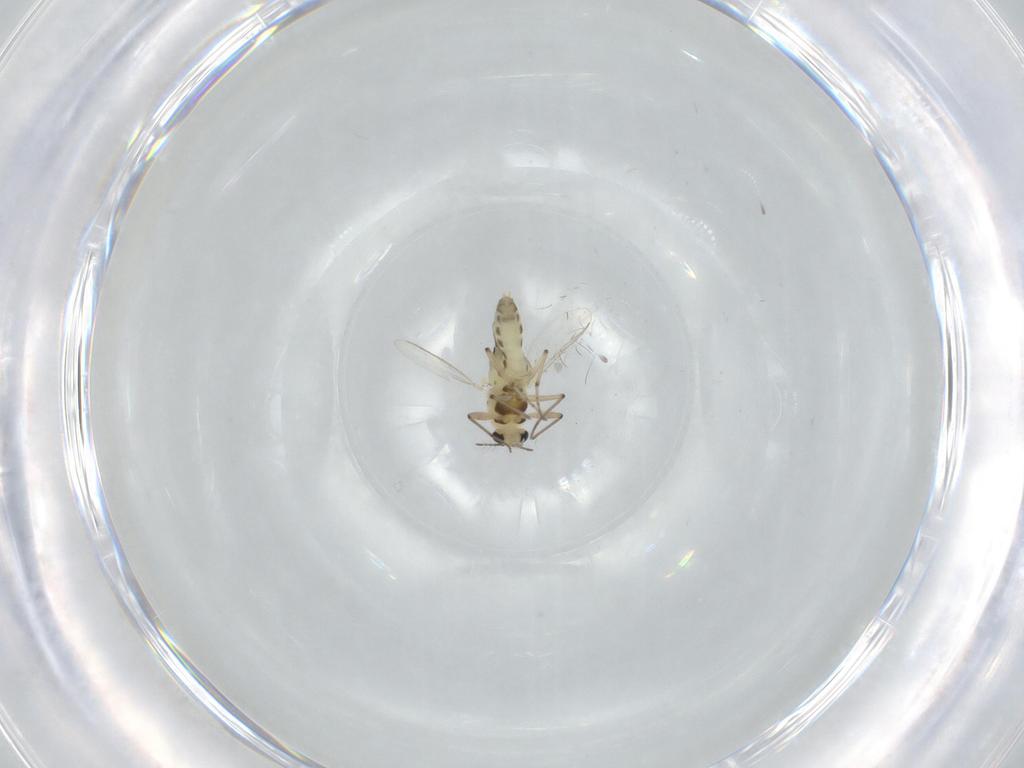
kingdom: Animalia
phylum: Arthropoda
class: Insecta
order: Diptera
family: Chironomidae
